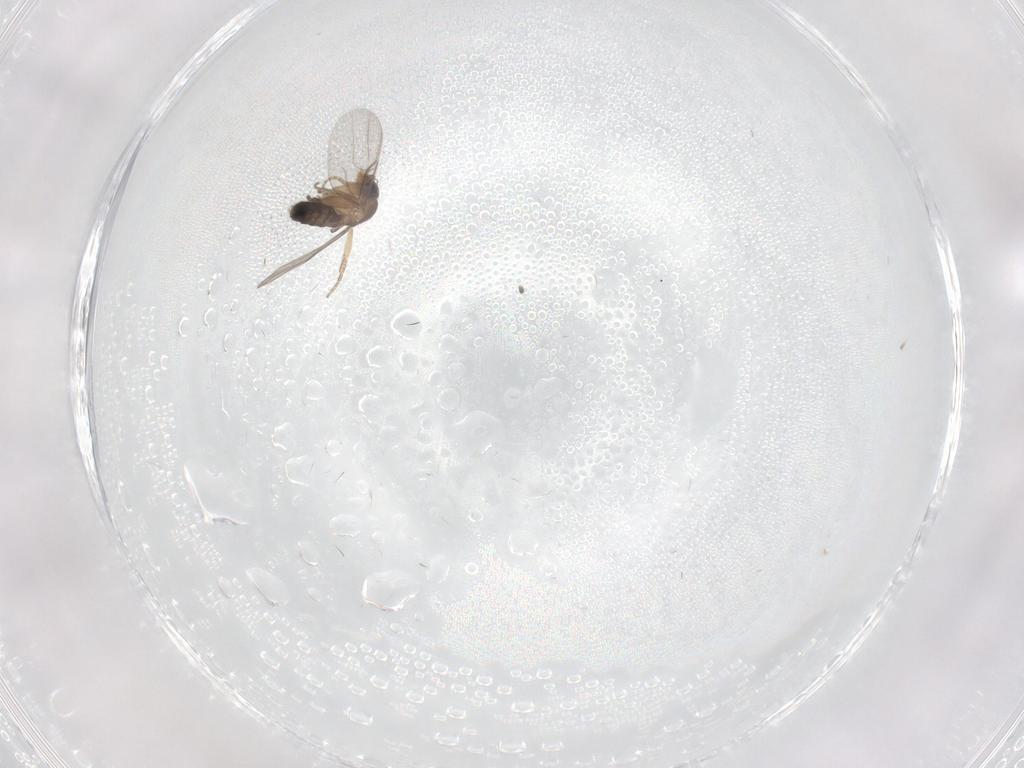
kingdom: Animalia
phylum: Arthropoda
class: Insecta
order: Diptera
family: Phoridae
